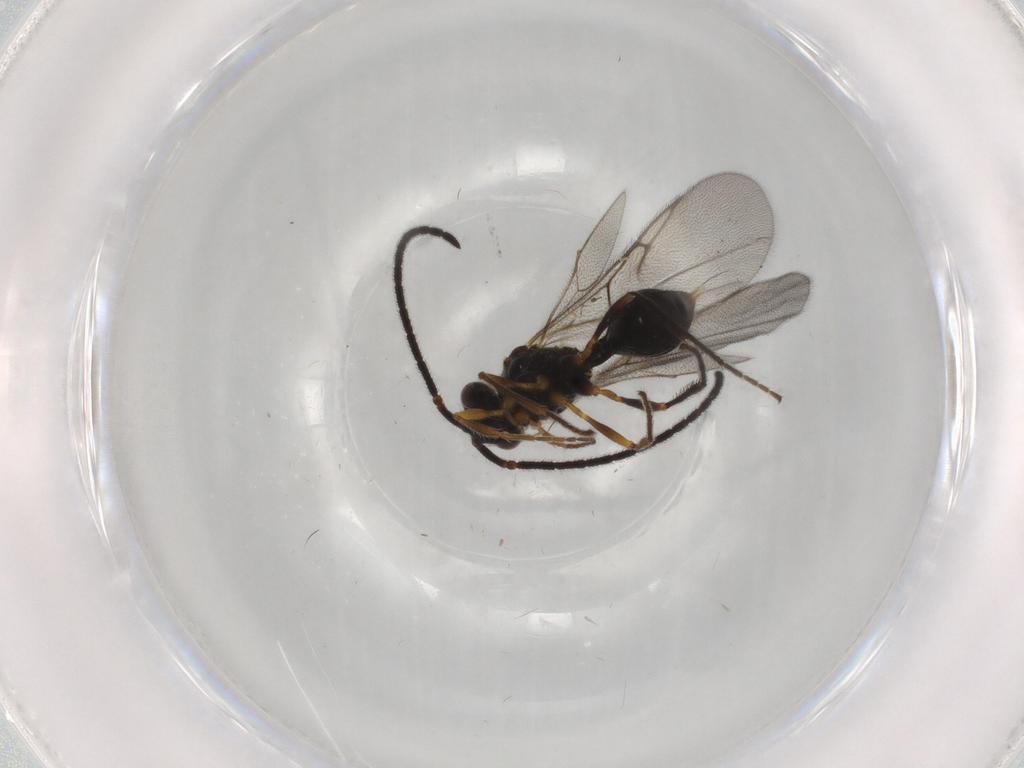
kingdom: Animalia
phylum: Arthropoda
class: Insecta
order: Hymenoptera
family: Diapriidae
